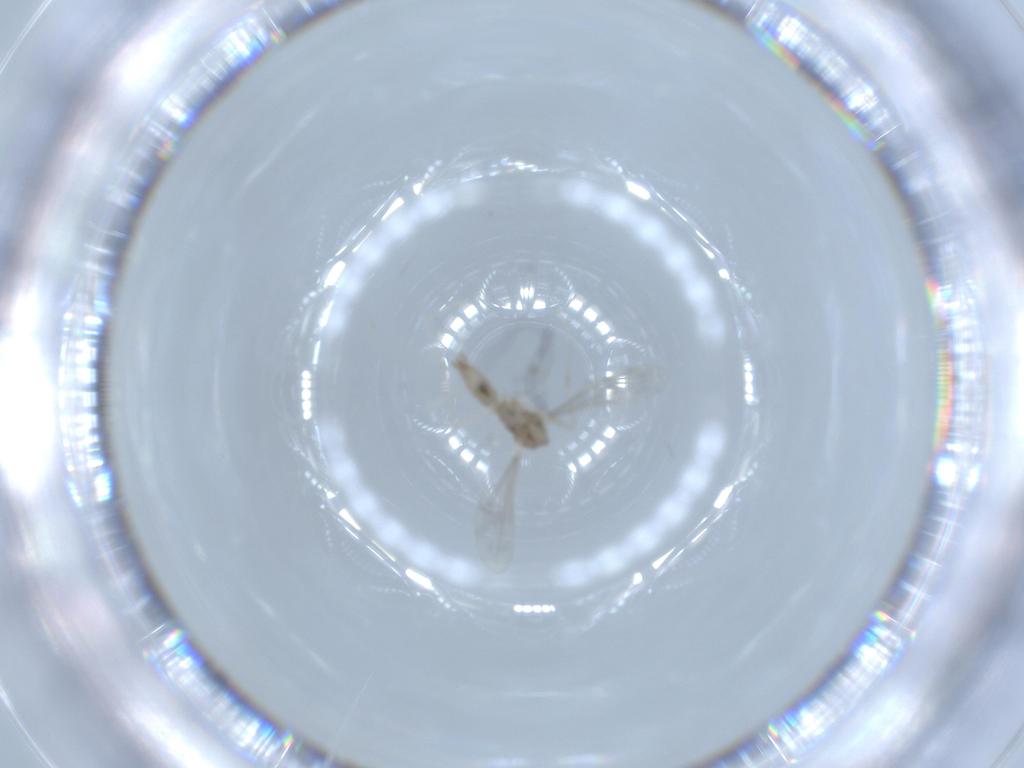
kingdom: Animalia
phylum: Arthropoda
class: Insecta
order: Diptera
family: Cecidomyiidae
